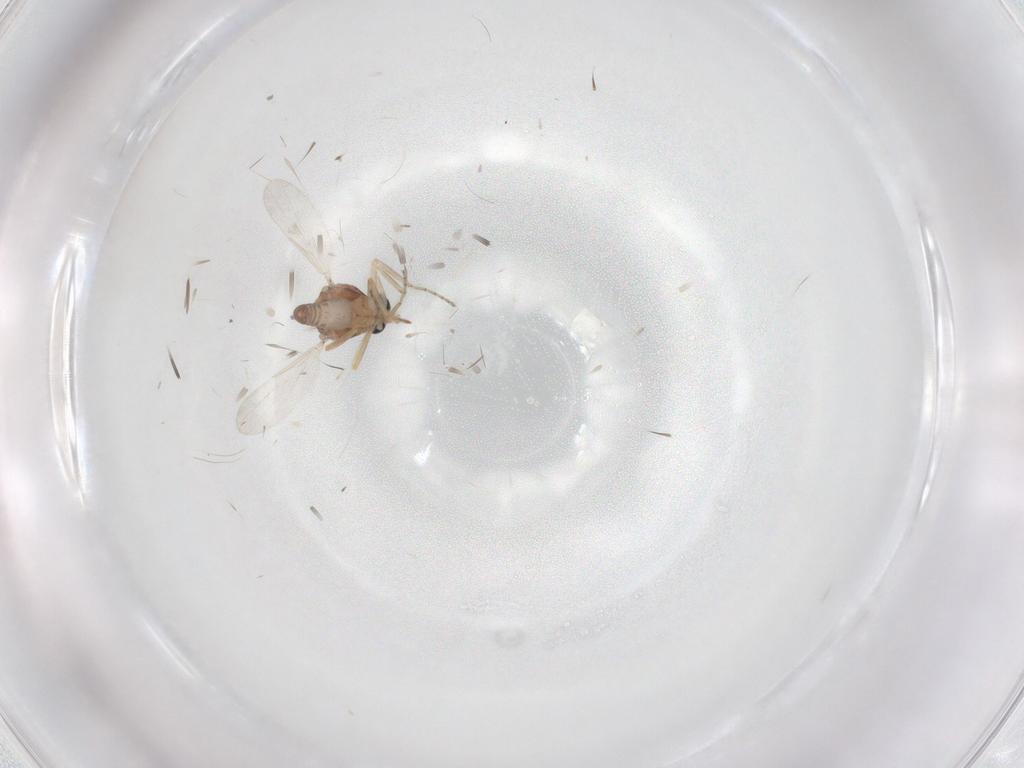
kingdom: Animalia
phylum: Arthropoda
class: Insecta
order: Diptera
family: Ceratopogonidae
